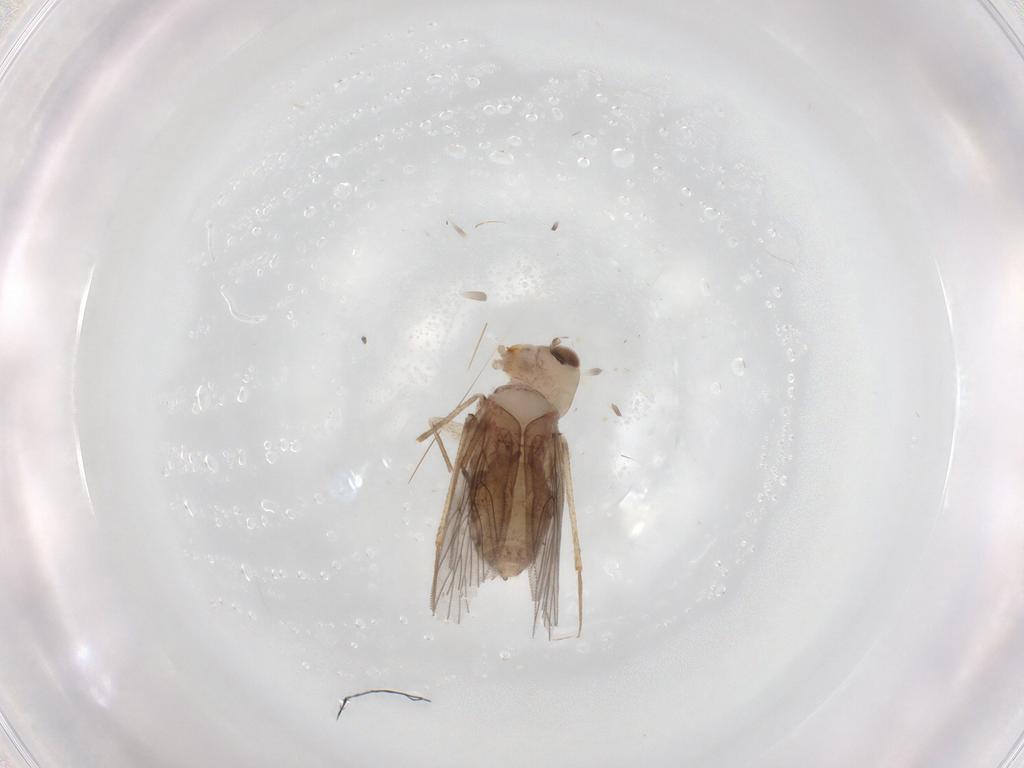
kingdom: Animalia
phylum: Arthropoda
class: Insecta
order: Psocodea
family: Lepidopsocidae
